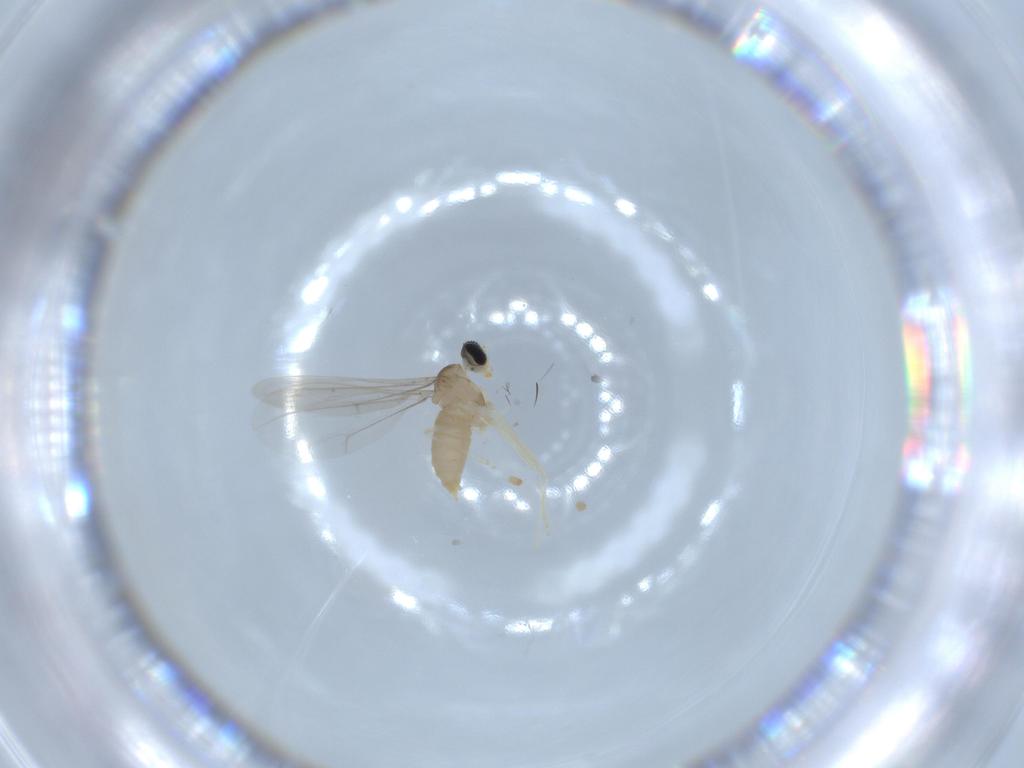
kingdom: Animalia
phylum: Arthropoda
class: Insecta
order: Diptera
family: Cecidomyiidae
